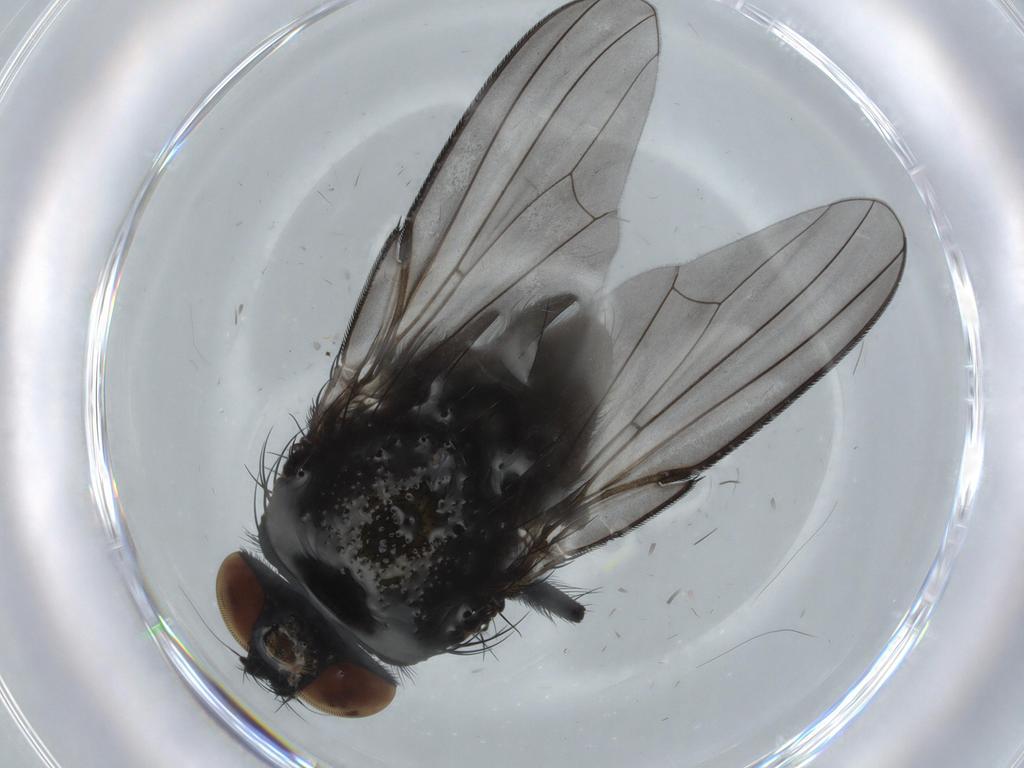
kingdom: Animalia
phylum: Arthropoda
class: Insecta
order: Diptera
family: Milichiidae
